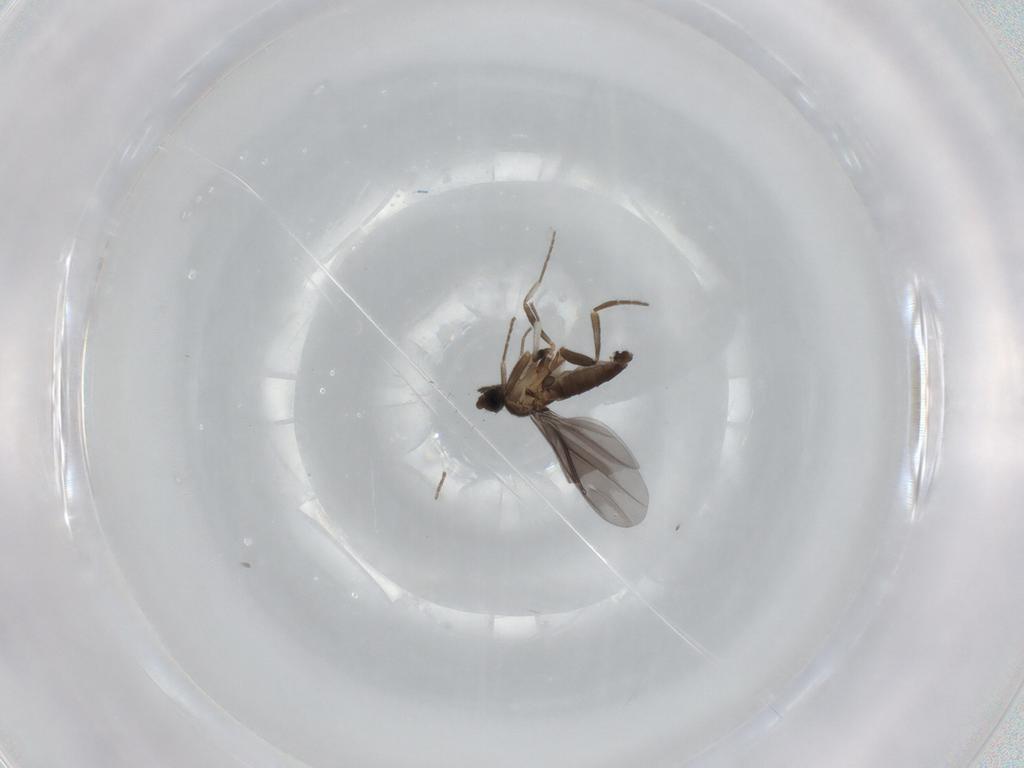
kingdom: Animalia
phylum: Arthropoda
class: Insecta
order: Diptera
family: Phoridae
